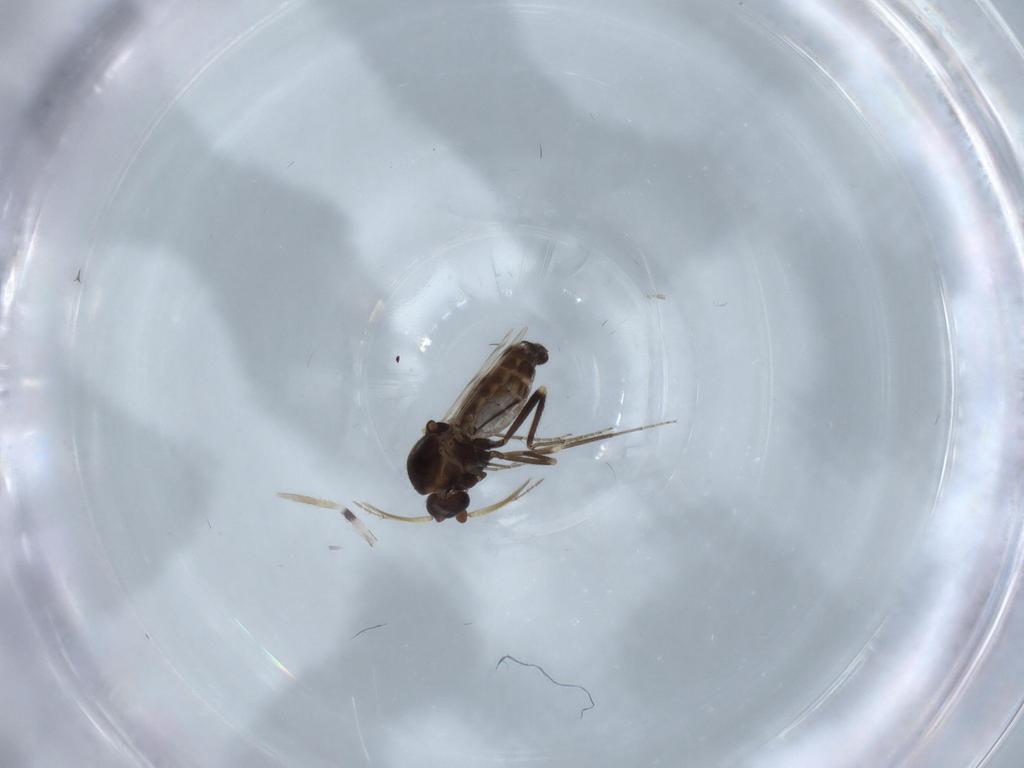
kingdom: Animalia
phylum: Arthropoda
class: Insecta
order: Diptera
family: Ceratopogonidae
